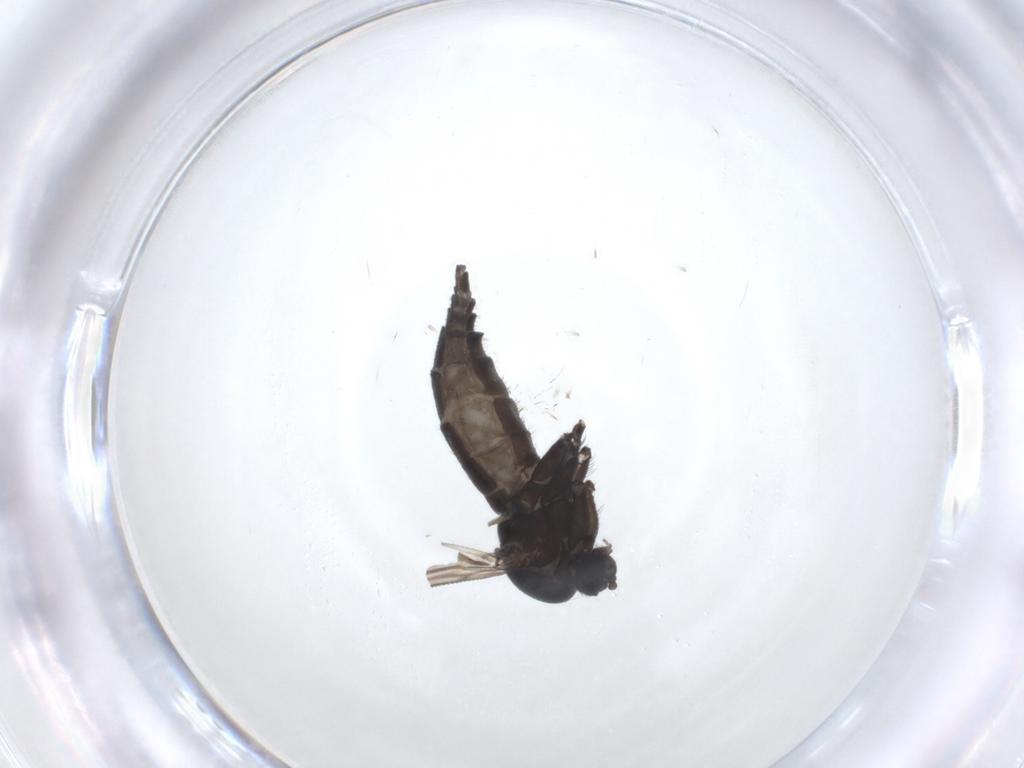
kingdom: Animalia
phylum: Arthropoda
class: Insecta
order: Diptera
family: Sciaridae
